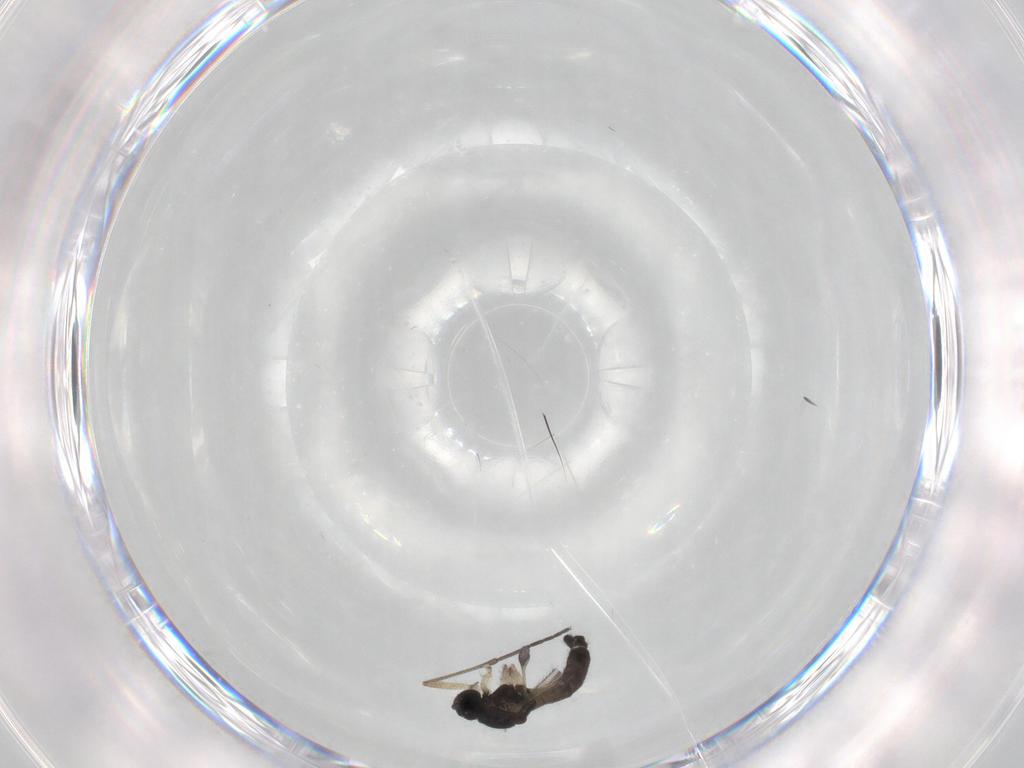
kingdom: Animalia
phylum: Arthropoda
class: Insecta
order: Diptera
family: Sciaridae
